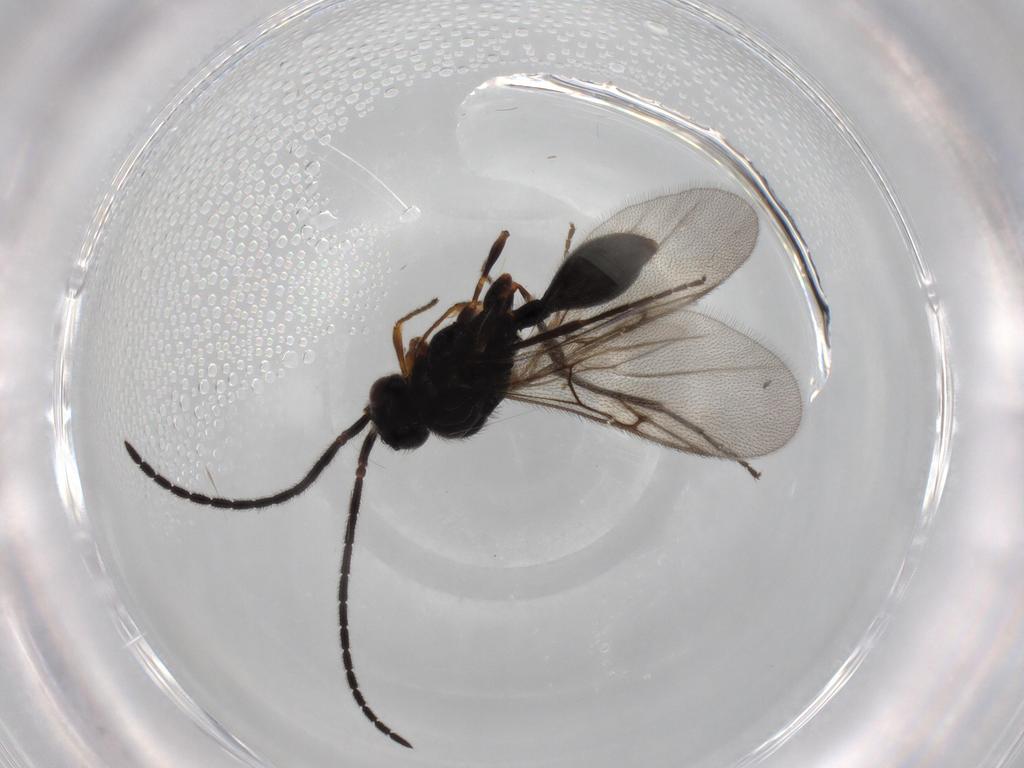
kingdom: Animalia
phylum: Arthropoda
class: Insecta
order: Hymenoptera
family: Diapriidae
